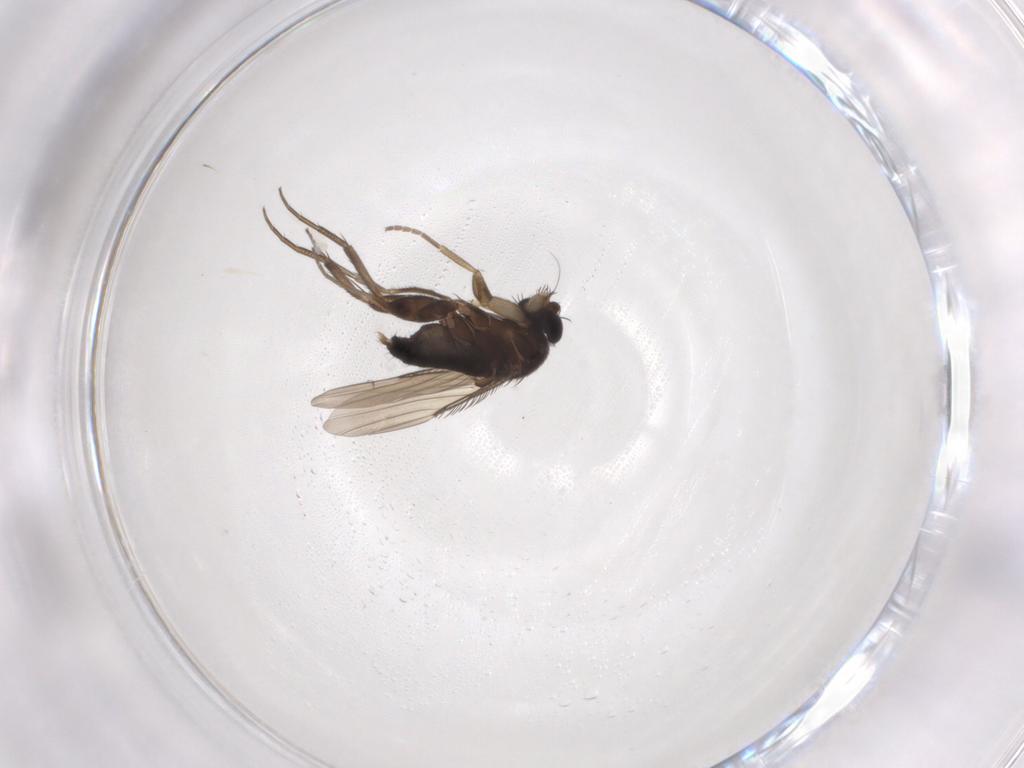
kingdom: Animalia
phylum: Arthropoda
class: Insecta
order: Diptera
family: Phoridae
